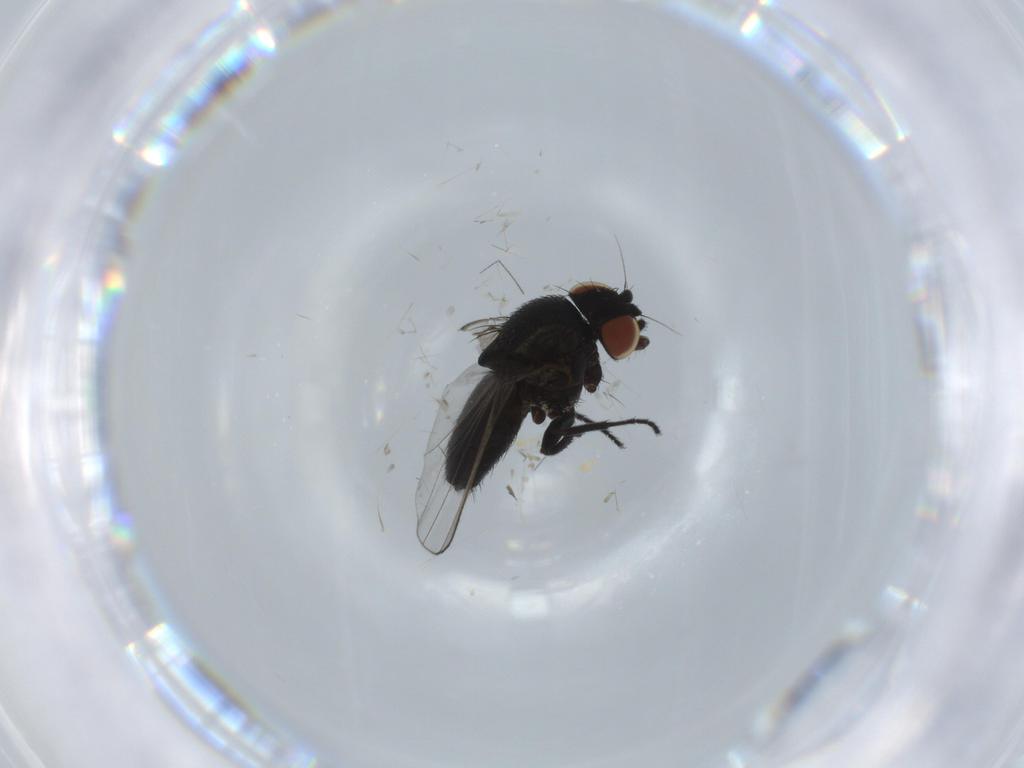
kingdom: Animalia
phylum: Arthropoda
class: Insecta
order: Diptera
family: Milichiidae
